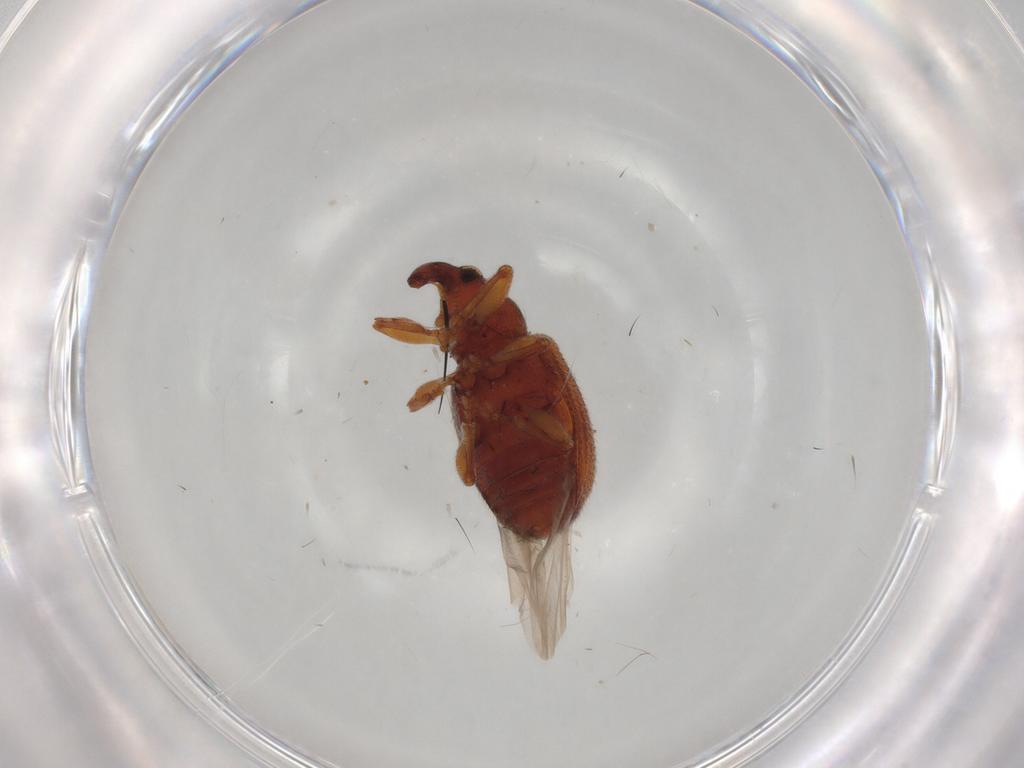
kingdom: Animalia
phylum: Arthropoda
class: Insecta
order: Coleoptera
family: Curculionidae
